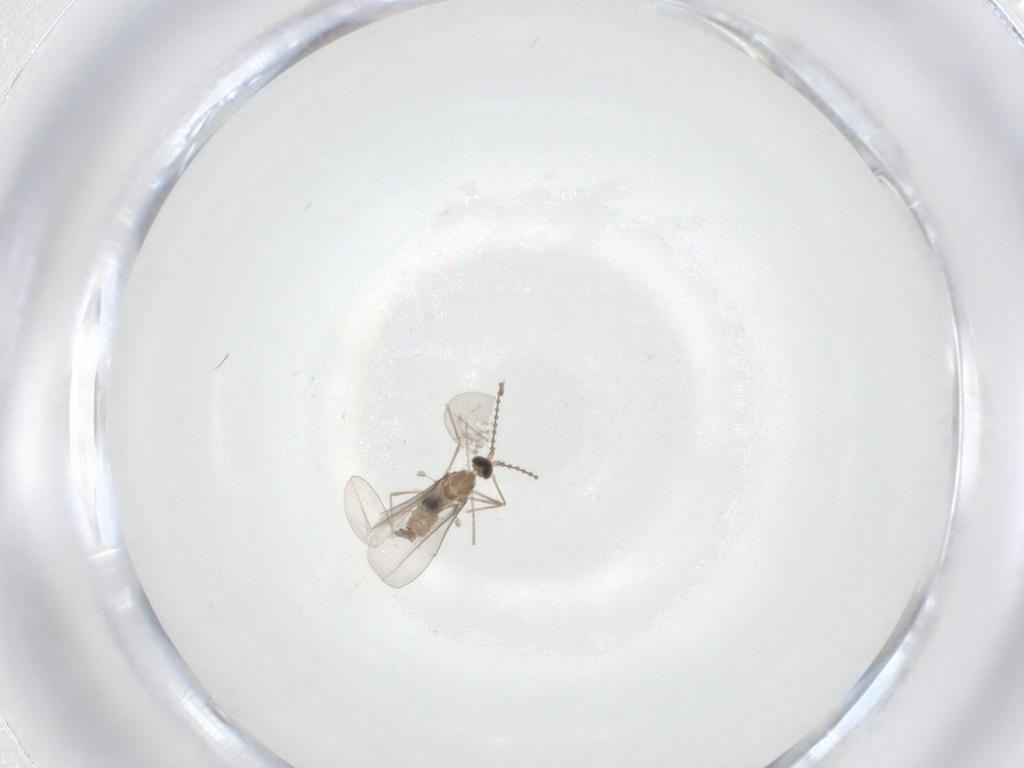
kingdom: Animalia
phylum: Arthropoda
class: Insecta
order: Diptera
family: Cecidomyiidae
